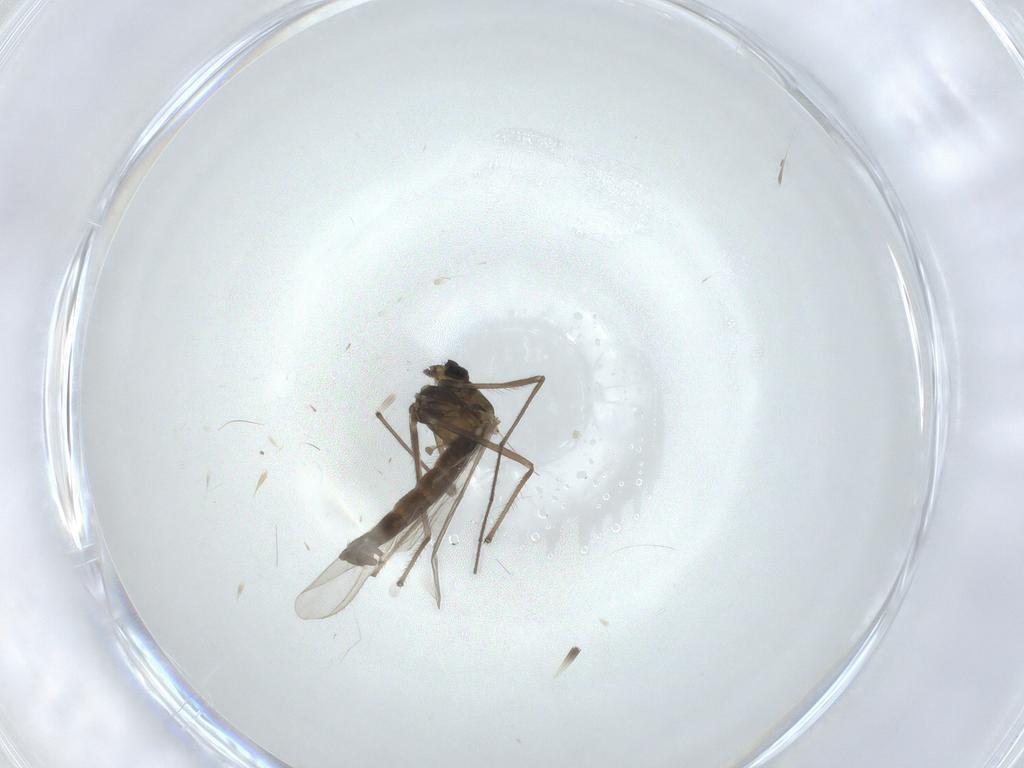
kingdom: Animalia
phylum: Arthropoda
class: Insecta
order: Diptera
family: Chironomidae
